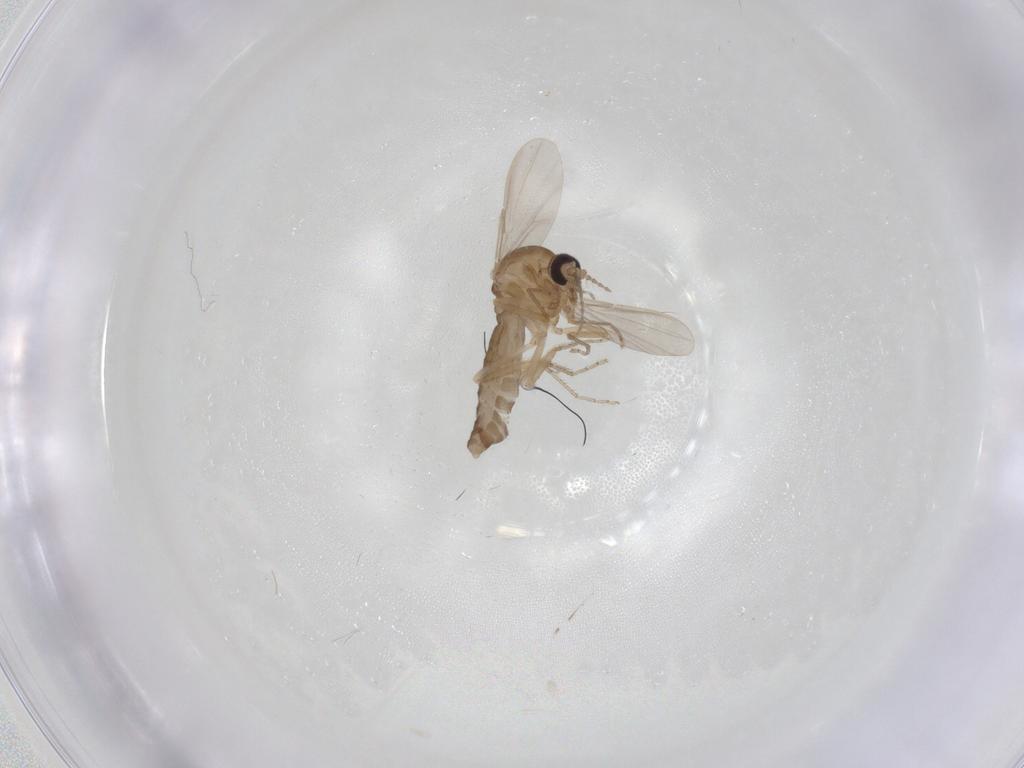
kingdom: Animalia
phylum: Arthropoda
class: Insecta
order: Diptera
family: Ceratopogonidae
